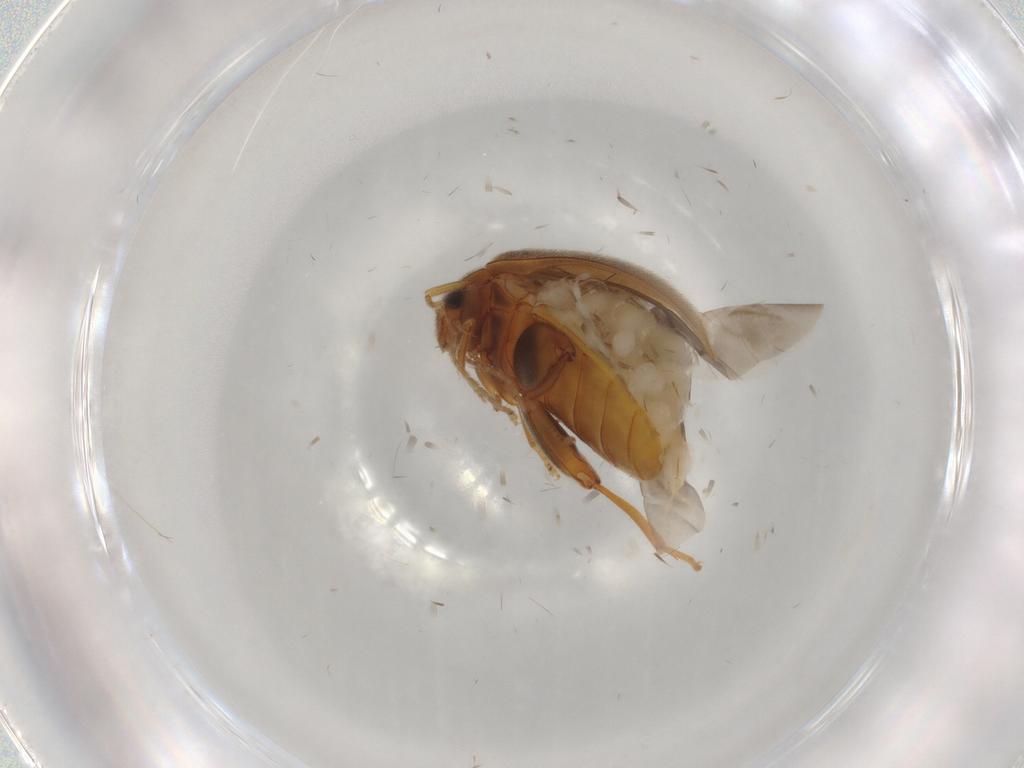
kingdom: Animalia
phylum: Arthropoda
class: Insecta
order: Coleoptera
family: Scirtidae
